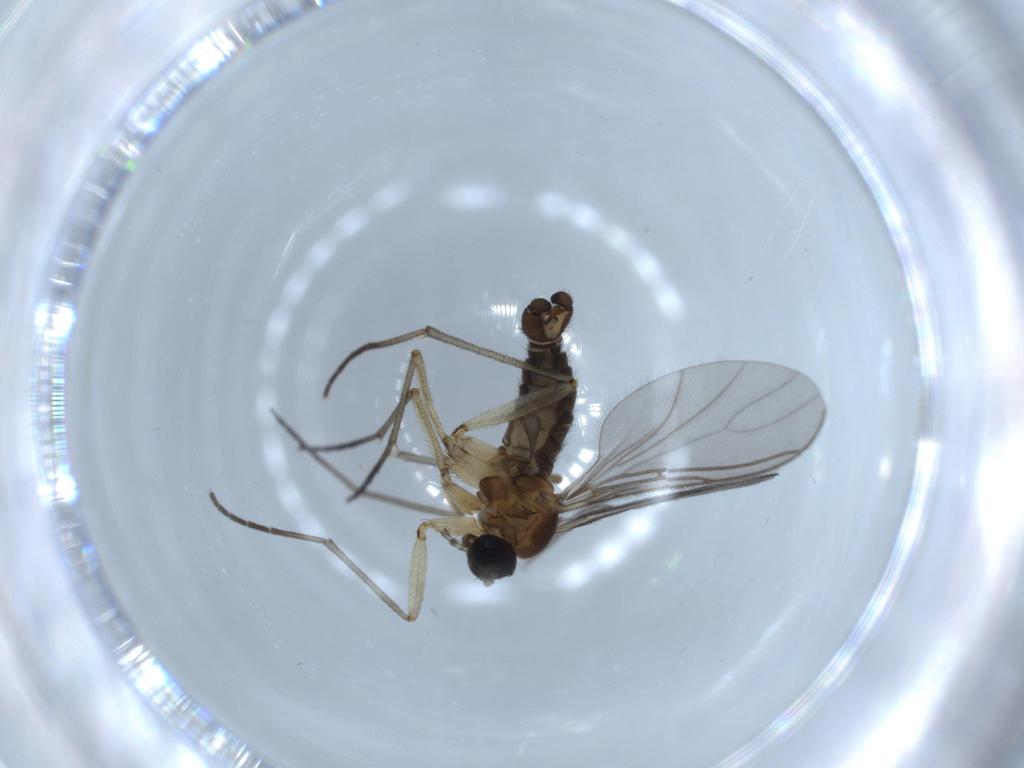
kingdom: Animalia
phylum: Arthropoda
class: Insecta
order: Diptera
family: Sciaridae
